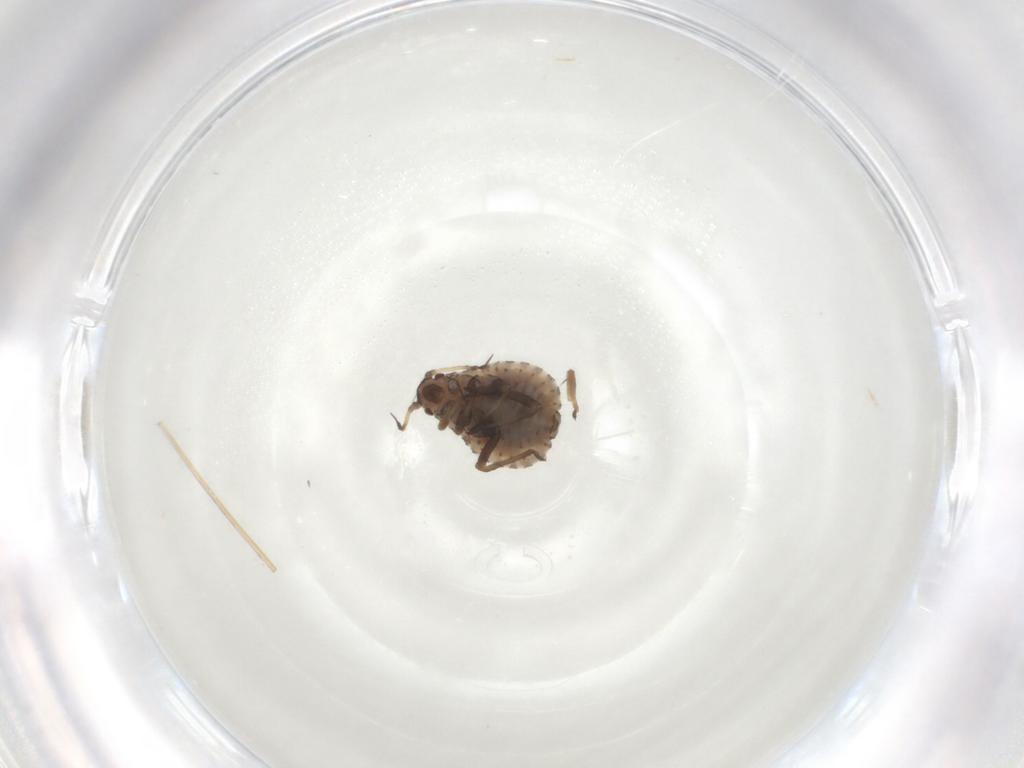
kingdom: Animalia
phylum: Arthropoda
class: Insecta
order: Hemiptera
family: Aphididae
